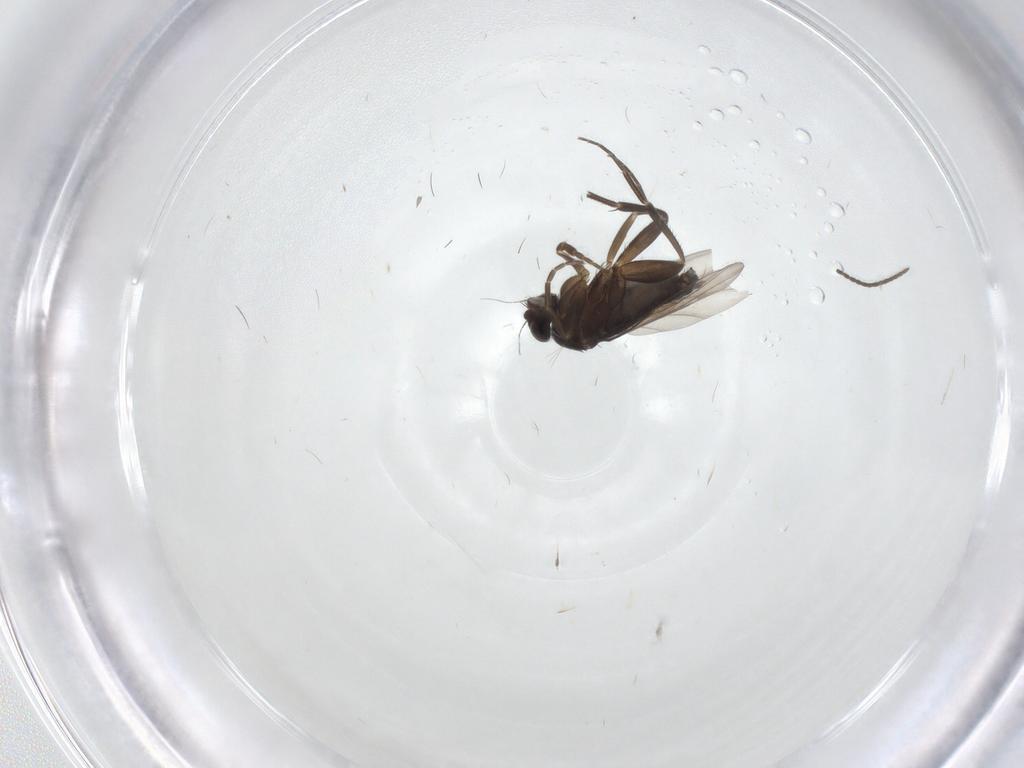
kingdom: Animalia
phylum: Arthropoda
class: Insecta
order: Diptera
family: Phoridae
